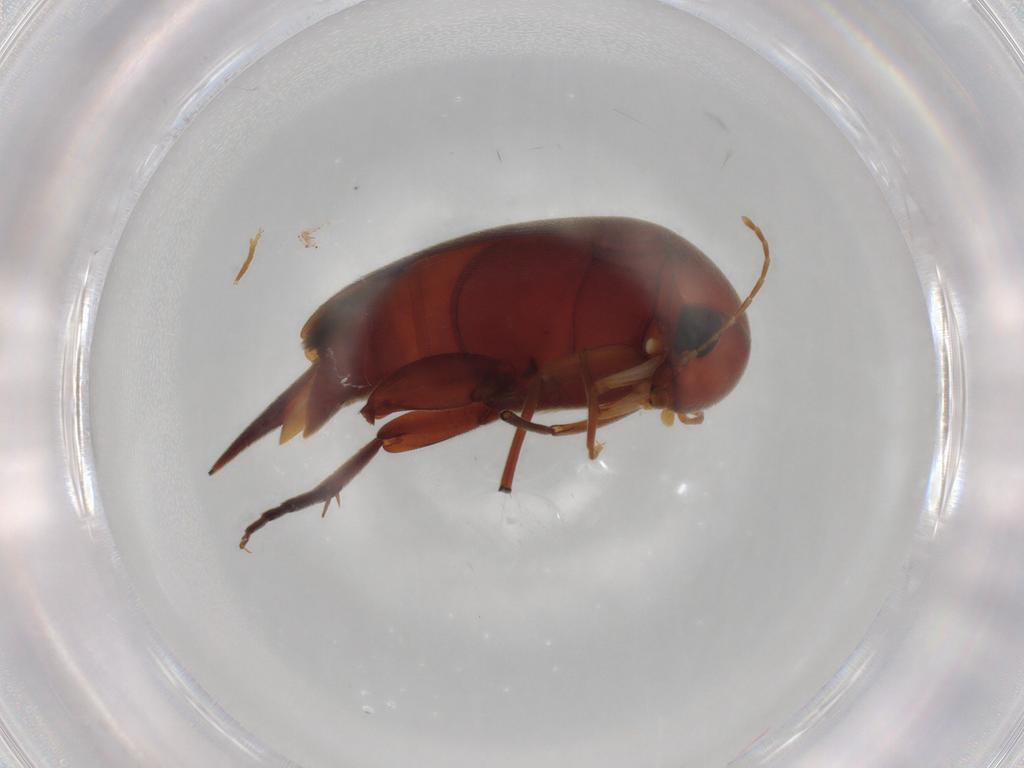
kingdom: Animalia
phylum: Arthropoda
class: Insecta
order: Coleoptera
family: Mordellidae
